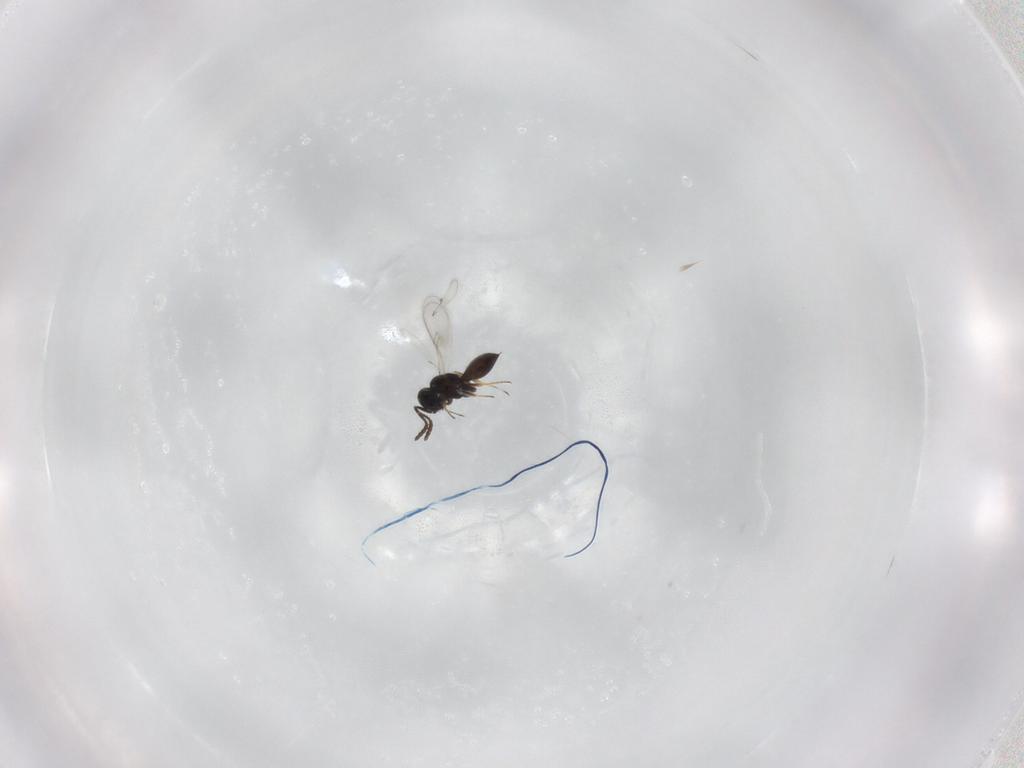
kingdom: Animalia
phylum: Arthropoda
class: Insecta
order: Hymenoptera
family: Scelionidae
